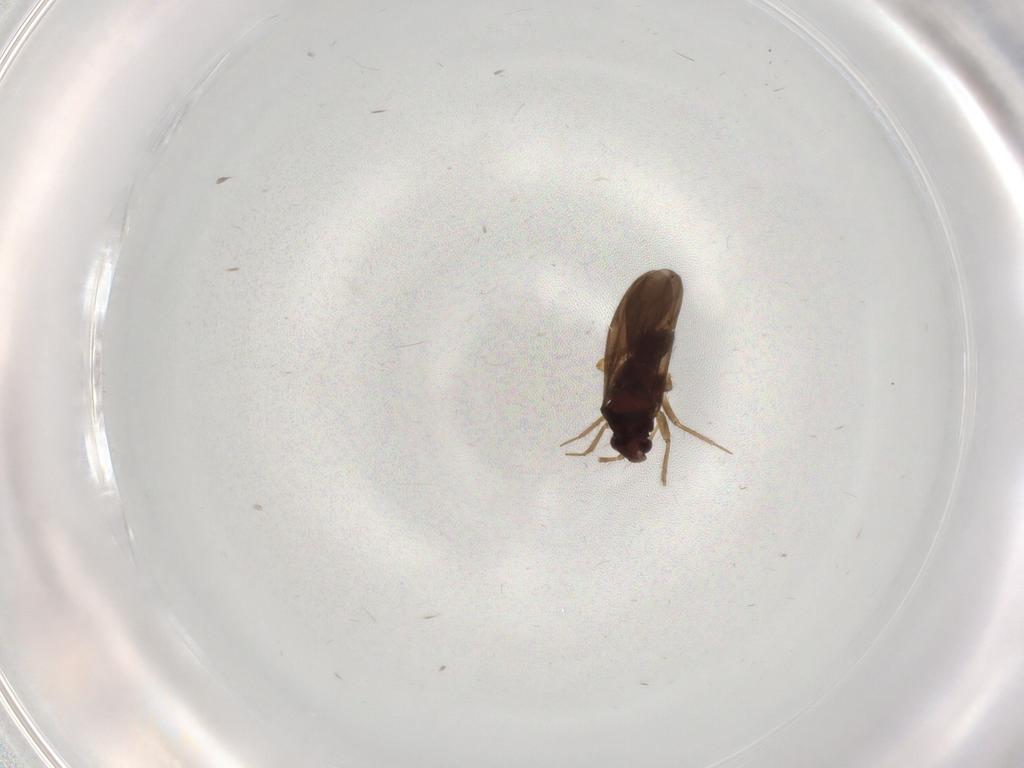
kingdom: Animalia
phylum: Arthropoda
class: Insecta
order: Hemiptera
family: Ceratocombidae
